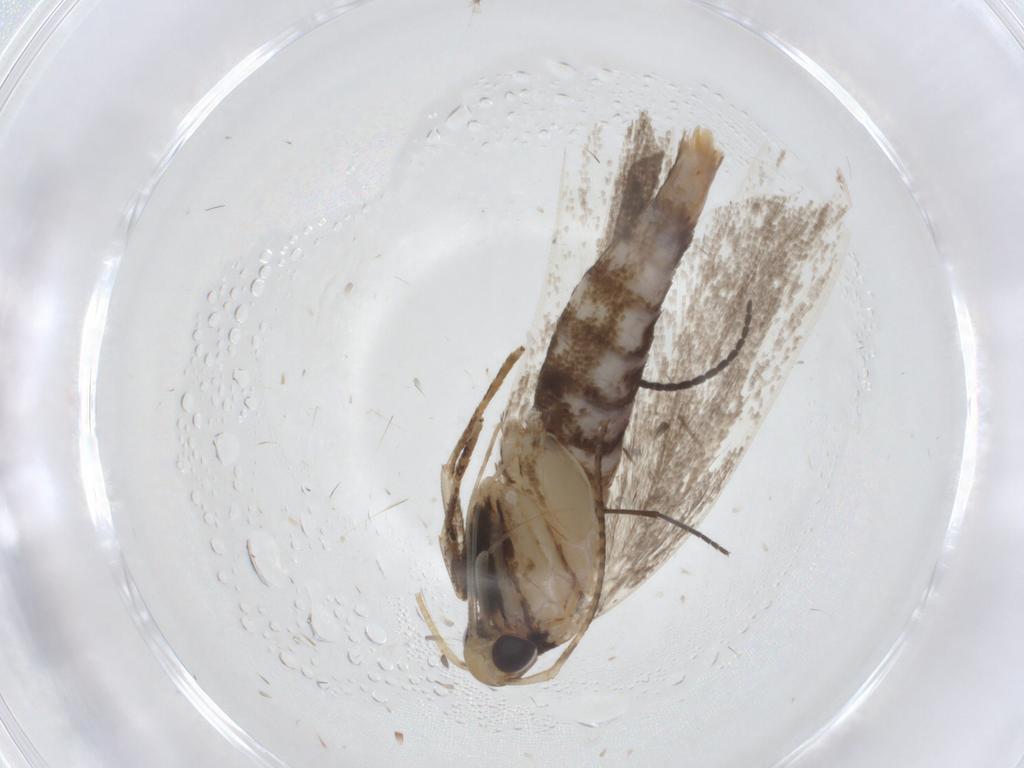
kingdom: Animalia
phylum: Arthropoda
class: Insecta
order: Lepidoptera
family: Gelechiidae
